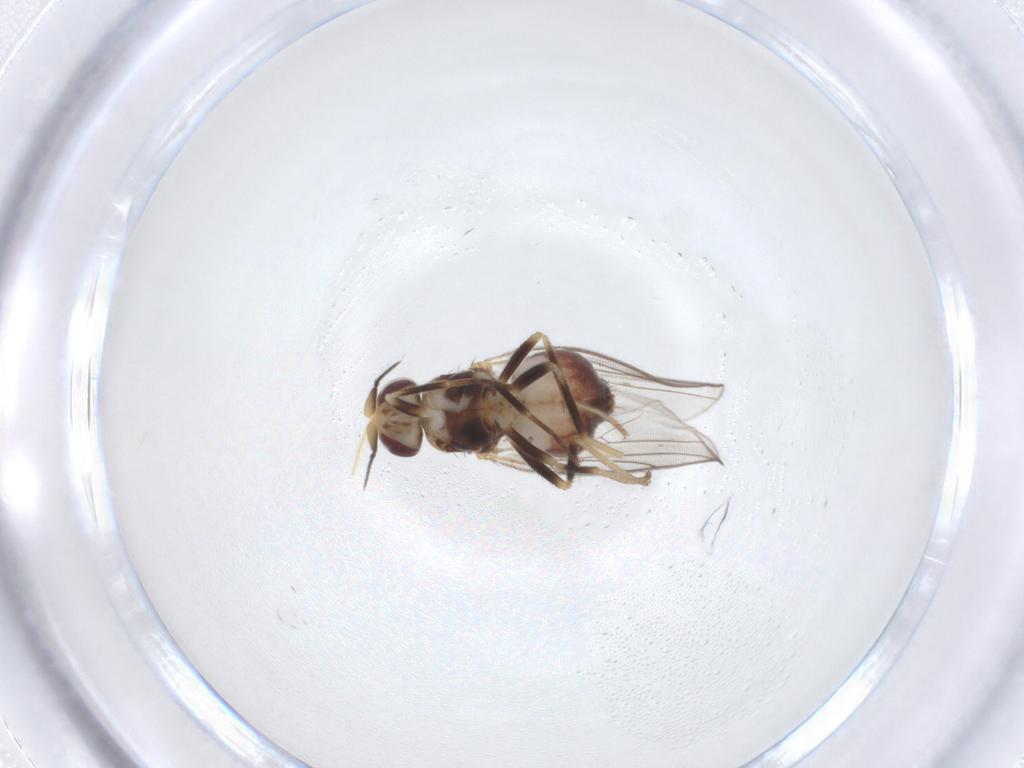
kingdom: Animalia
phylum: Arthropoda
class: Insecta
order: Diptera
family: Chloropidae
